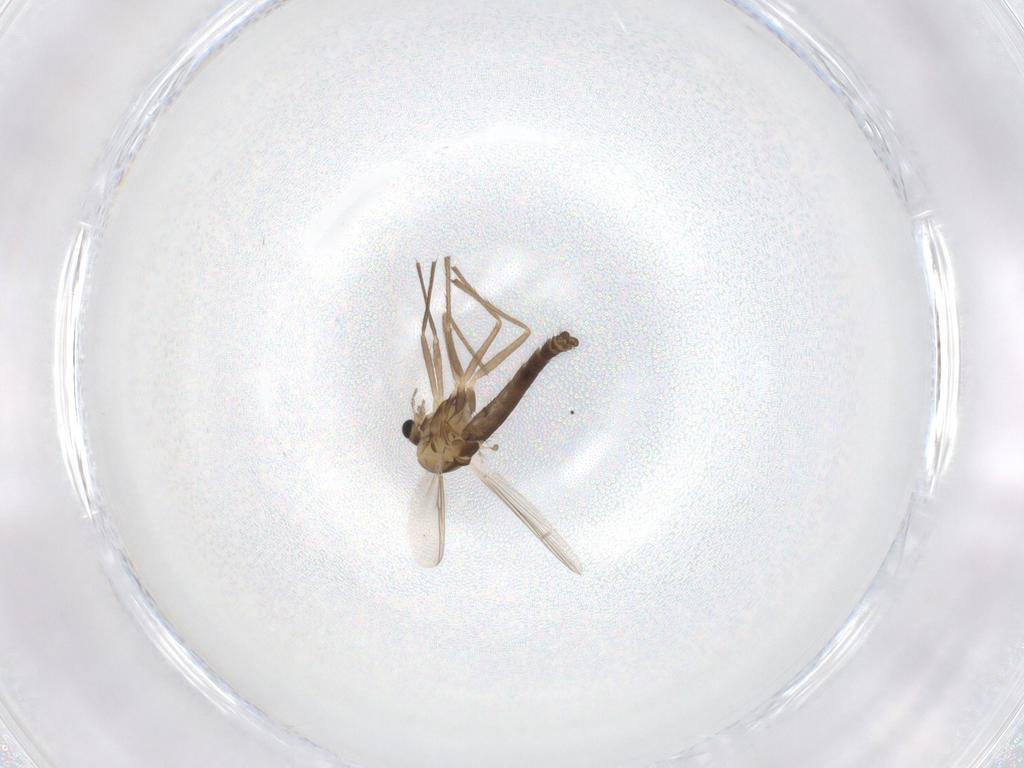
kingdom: Animalia
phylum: Arthropoda
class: Insecta
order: Diptera
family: Chironomidae
